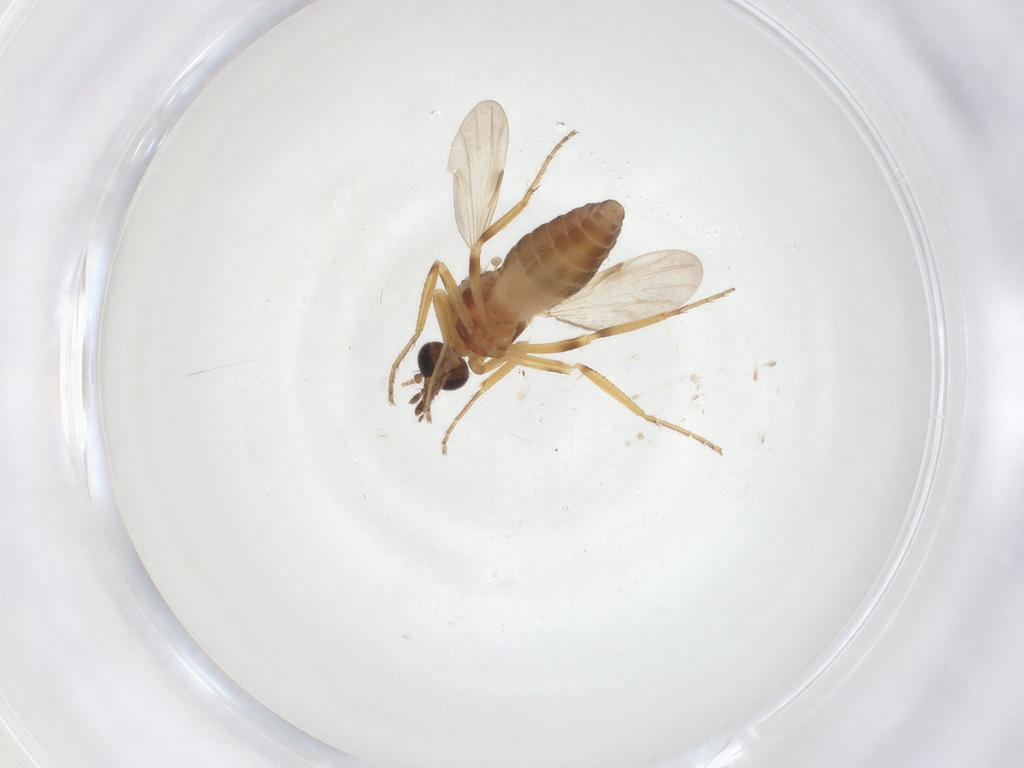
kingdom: Animalia
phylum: Arthropoda
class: Insecta
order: Diptera
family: Ceratopogonidae
